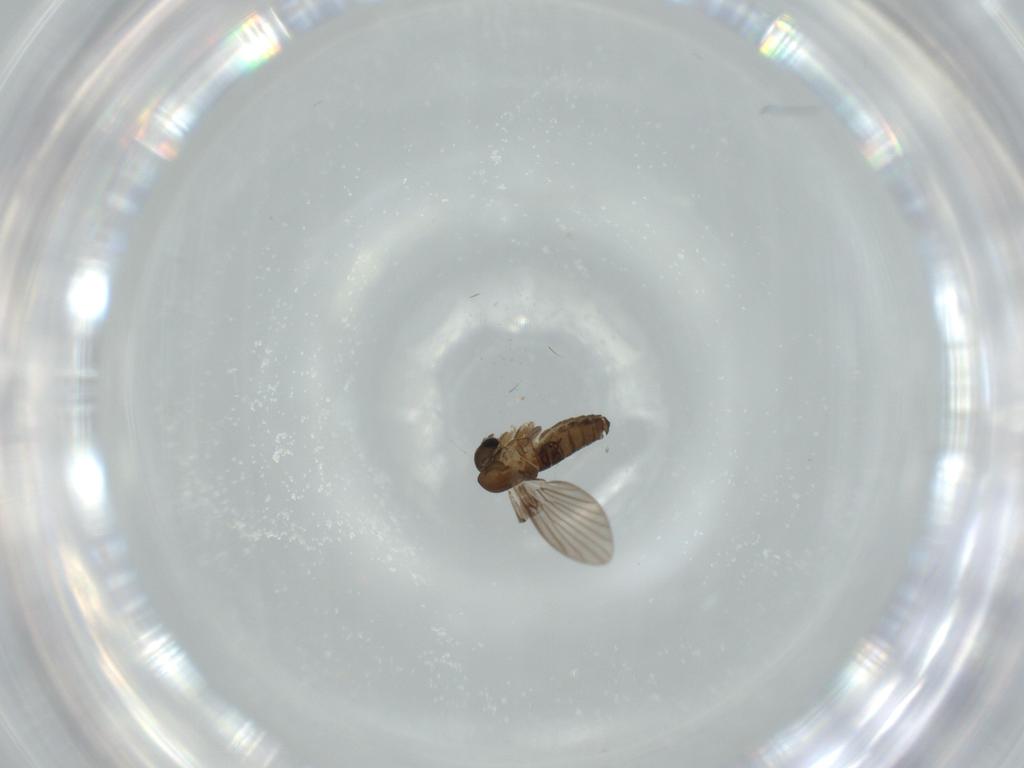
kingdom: Animalia
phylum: Arthropoda
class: Insecta
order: Diptera
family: Sphaeroceridae
